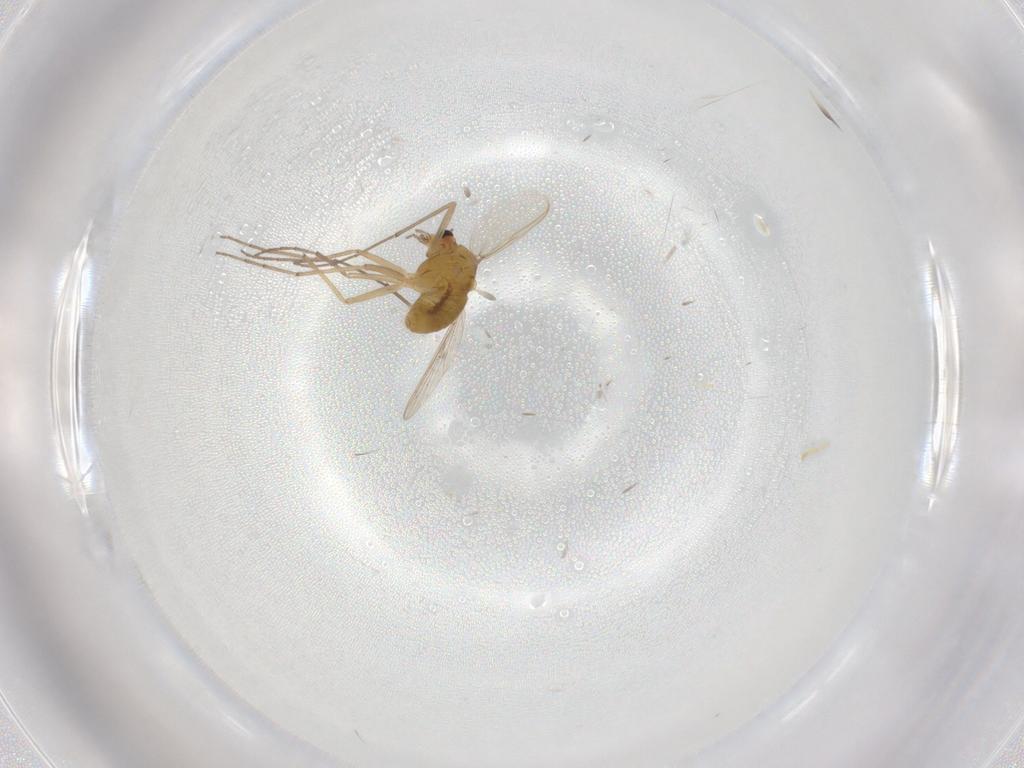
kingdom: Animalia
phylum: Arthropoda
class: Insecta
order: Diptera
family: Chironomidae
